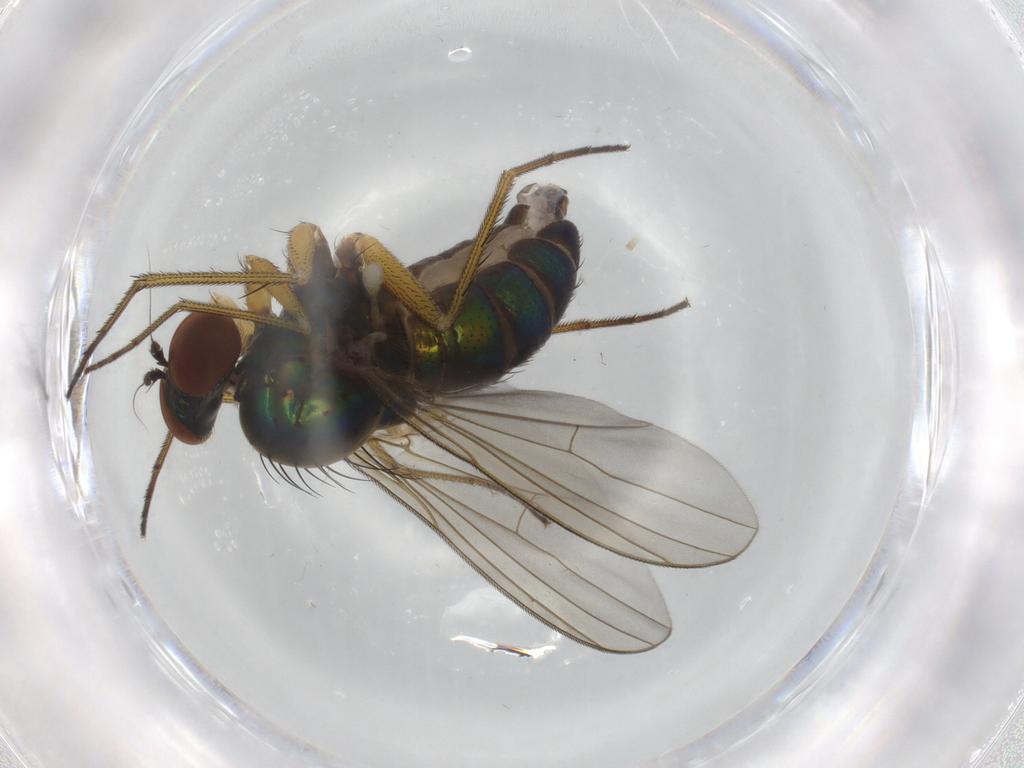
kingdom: Animalia
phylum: Arthropoda
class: Insecta
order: Diptera
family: Dolichopodidae
